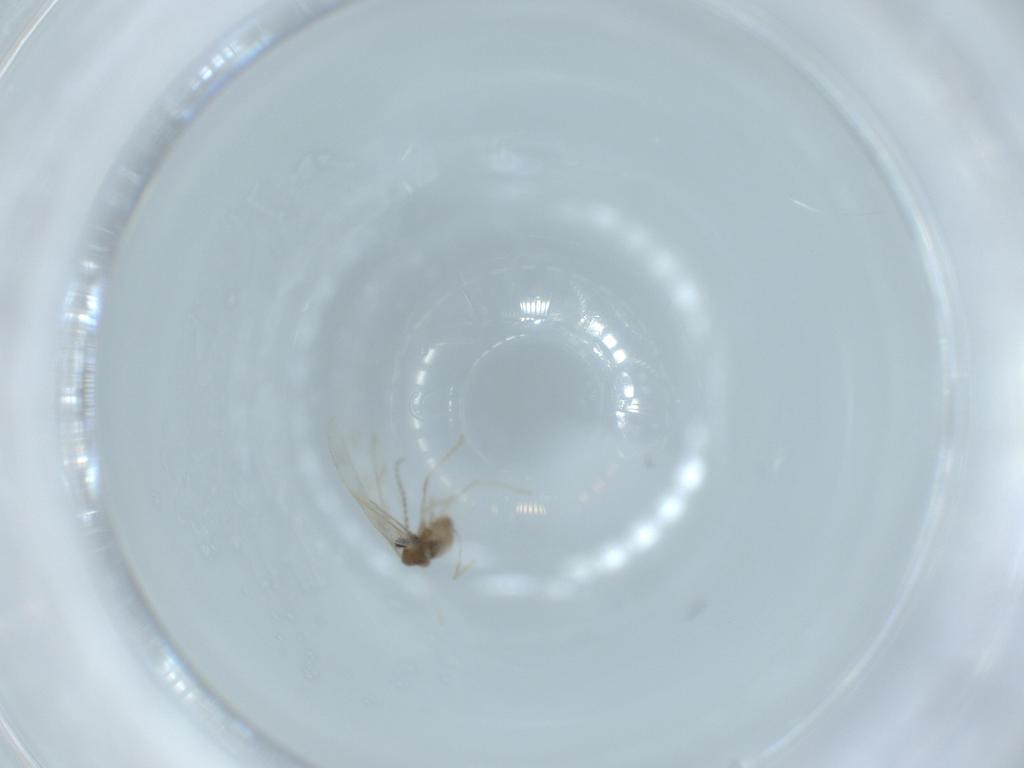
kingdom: Animalia
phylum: Arthropoda
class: Insecta
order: Diptera
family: Cecidomyiidae
